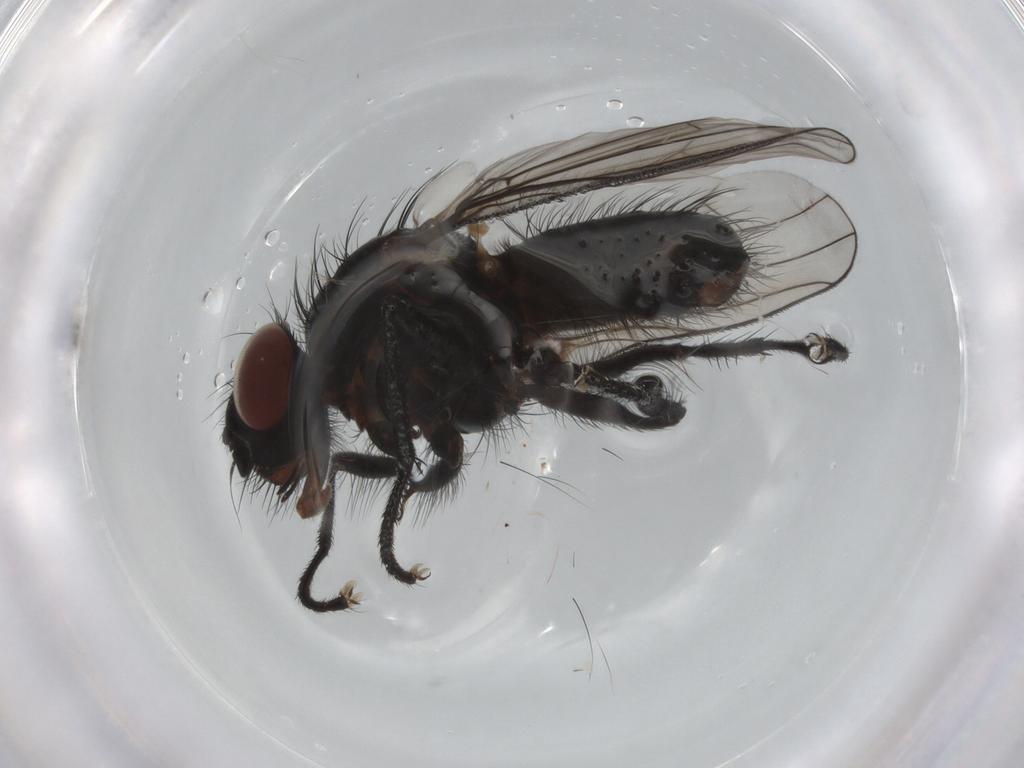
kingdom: Animalia
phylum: Arthropoda
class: Insecta
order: Diptera
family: Anthomyiidae
